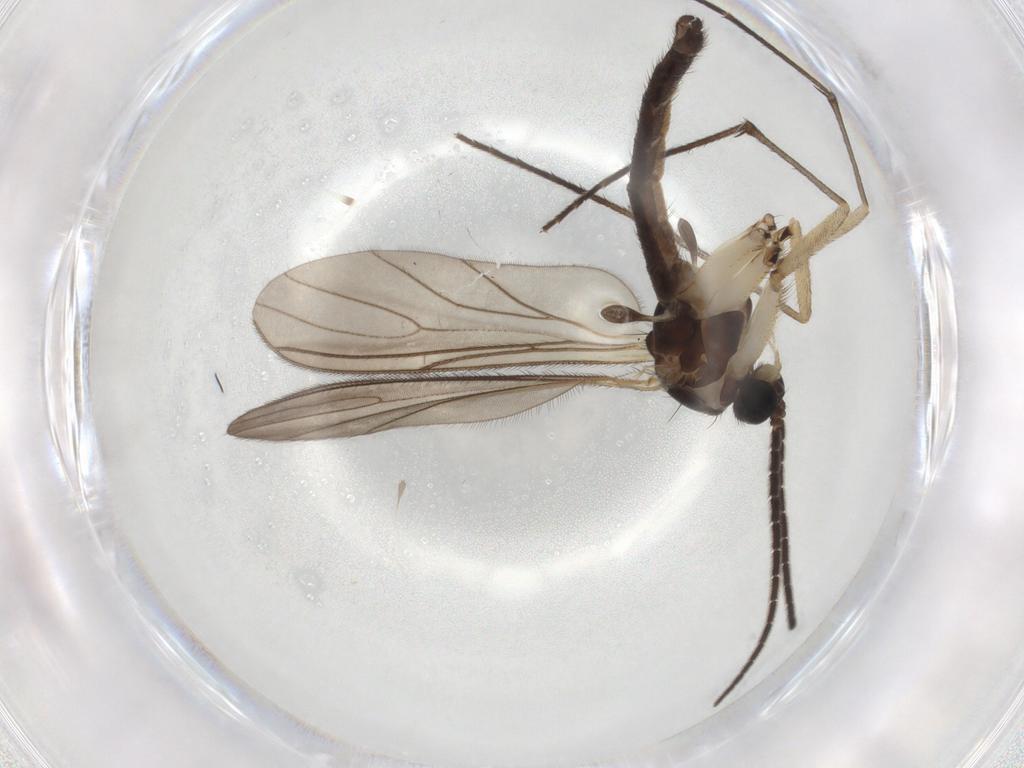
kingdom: Animalia
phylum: Arthropoda
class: Insecta
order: Diptera
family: Sciaridae
